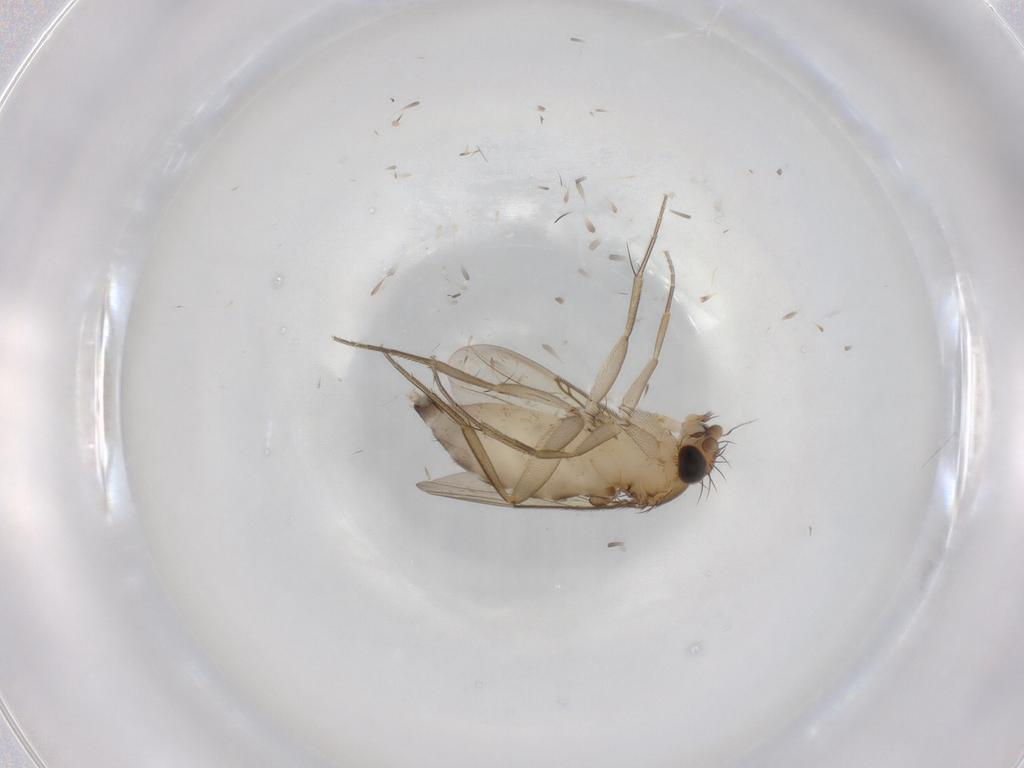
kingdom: Animalia
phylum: Arthropoda
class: Insecta
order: Diptera
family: Phoridae
